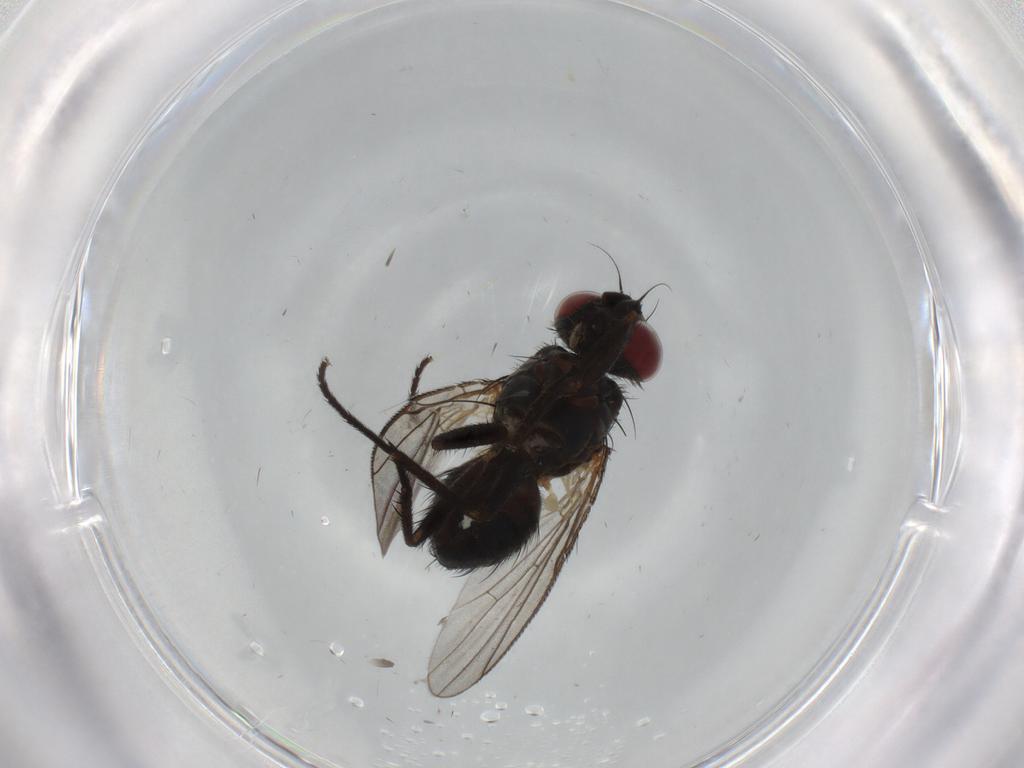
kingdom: Animalia
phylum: Arthropoda
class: Insecta
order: Diptera
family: Muscidae
